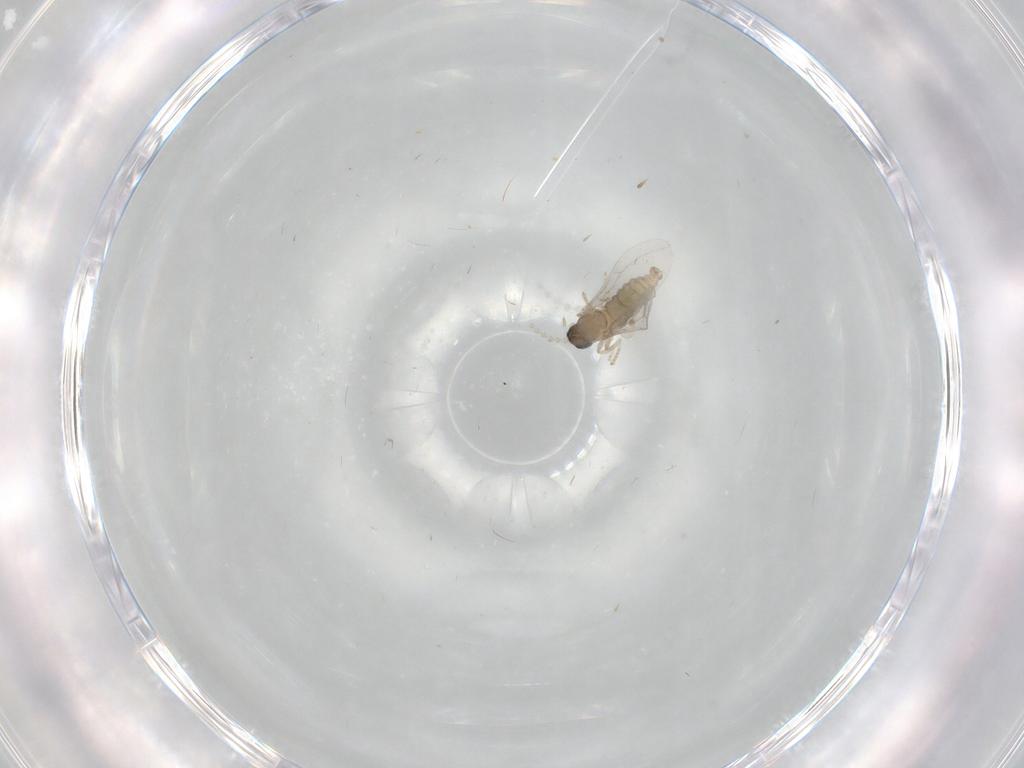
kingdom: Animalia
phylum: Arthropoda
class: Insecta
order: Diptera
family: Cecidomyiidae
